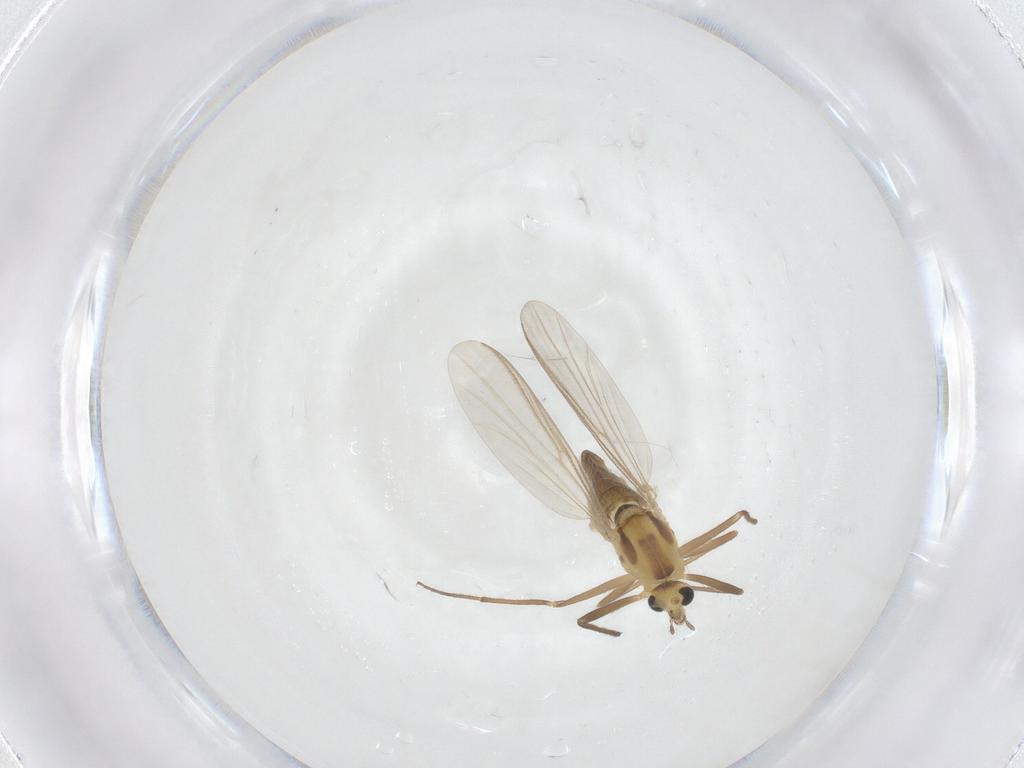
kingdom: Animalia
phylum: Arthropoda
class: Insecta
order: Diptera
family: Chironomidae
